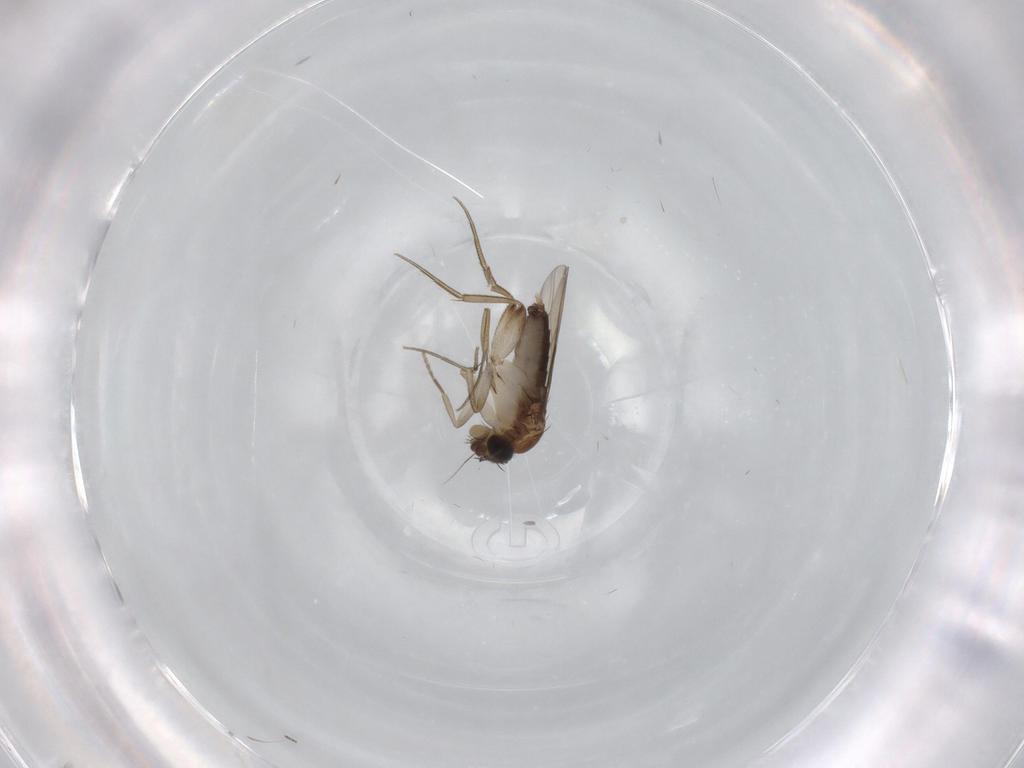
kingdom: Animalia
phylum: Arthropoda
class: Insecta
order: Diptera
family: Phoridae
